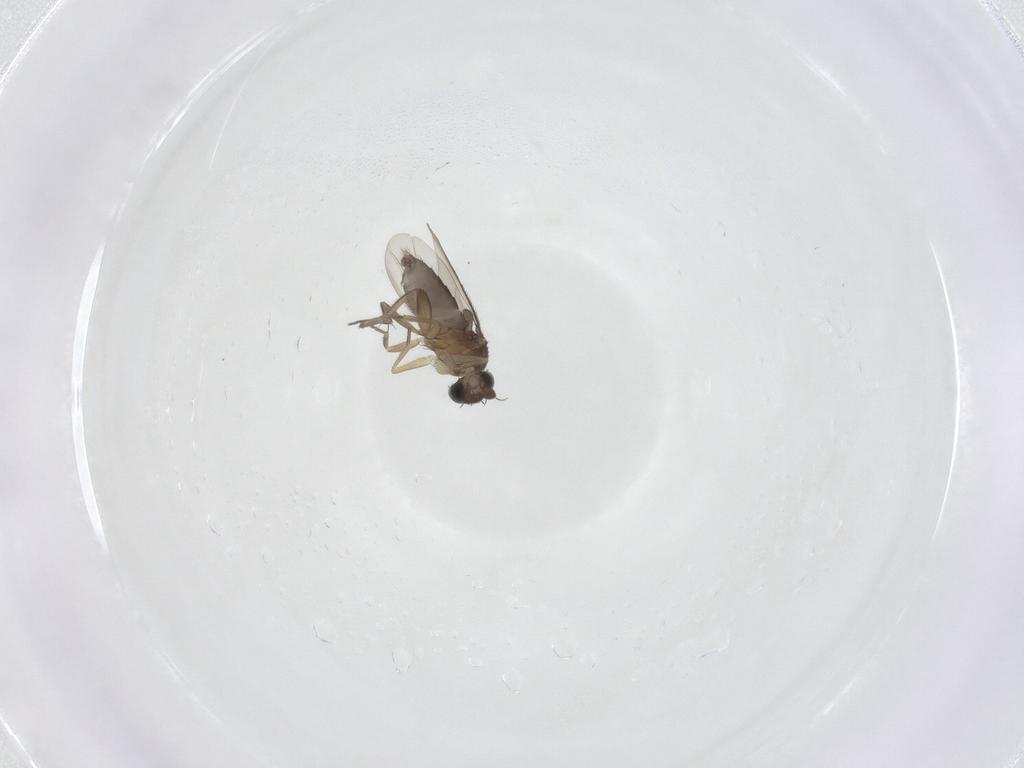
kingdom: Animalia
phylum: Arthropoda
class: Insecta
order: Diptera
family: Phoridae
